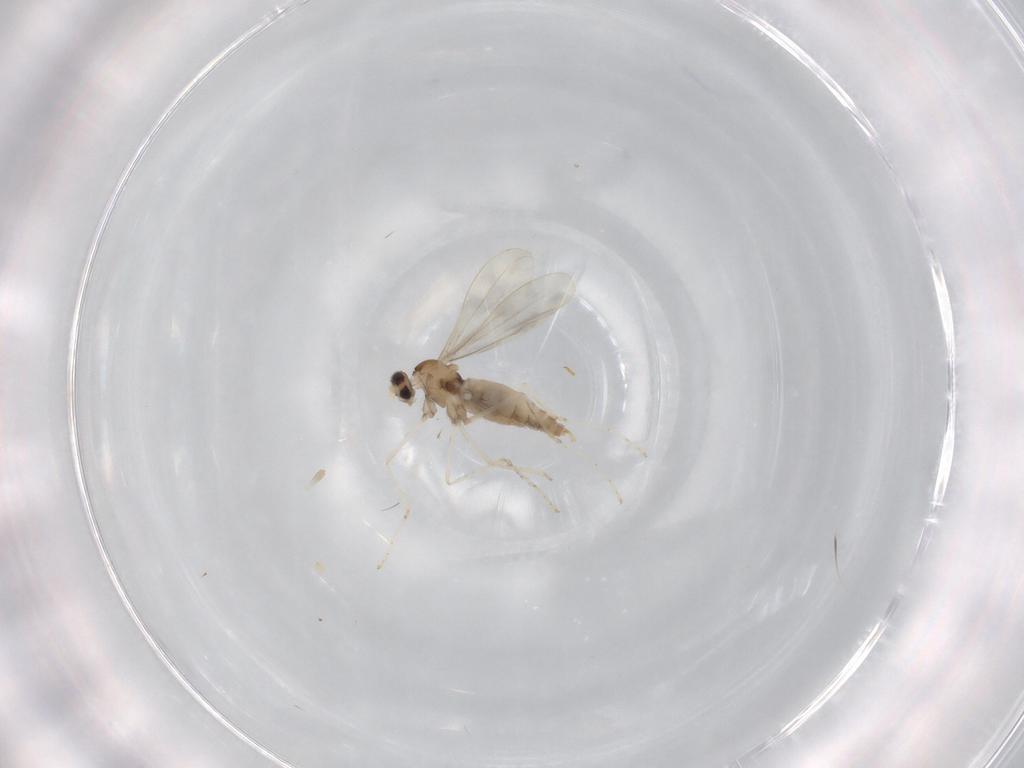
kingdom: Animalia
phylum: Arthropoda
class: Insecta
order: Diptera
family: Cecidomyiidae
